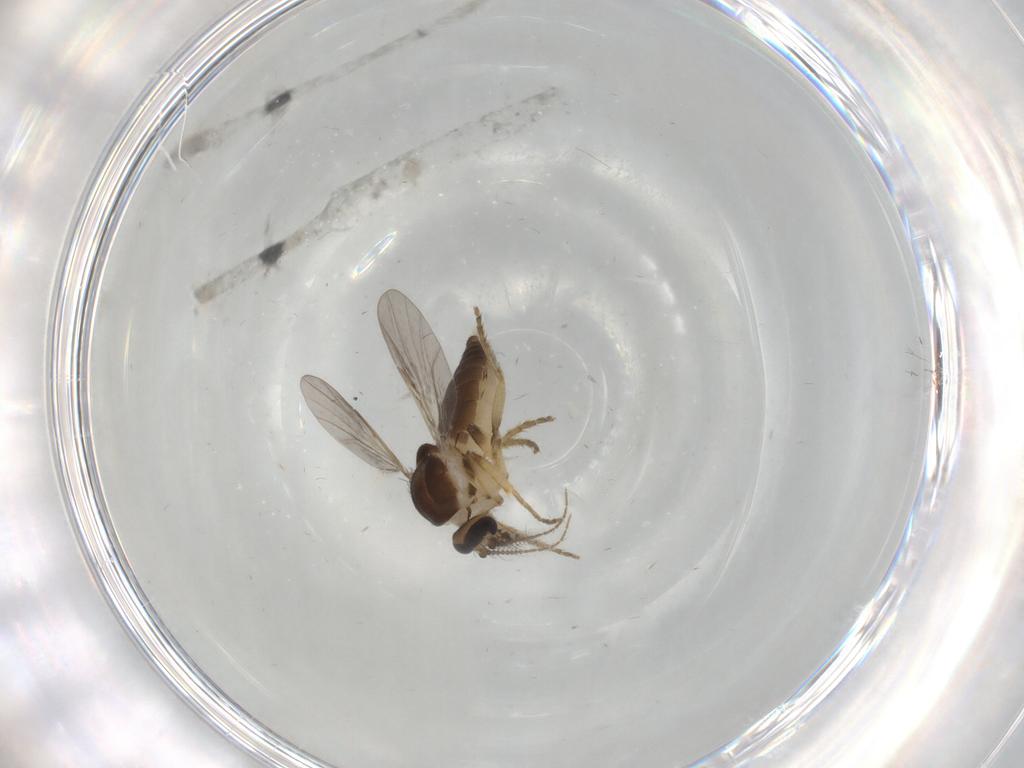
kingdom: Animalia
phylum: Arthropoda
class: Insecta
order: Diptera
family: Ceratopogonidae
